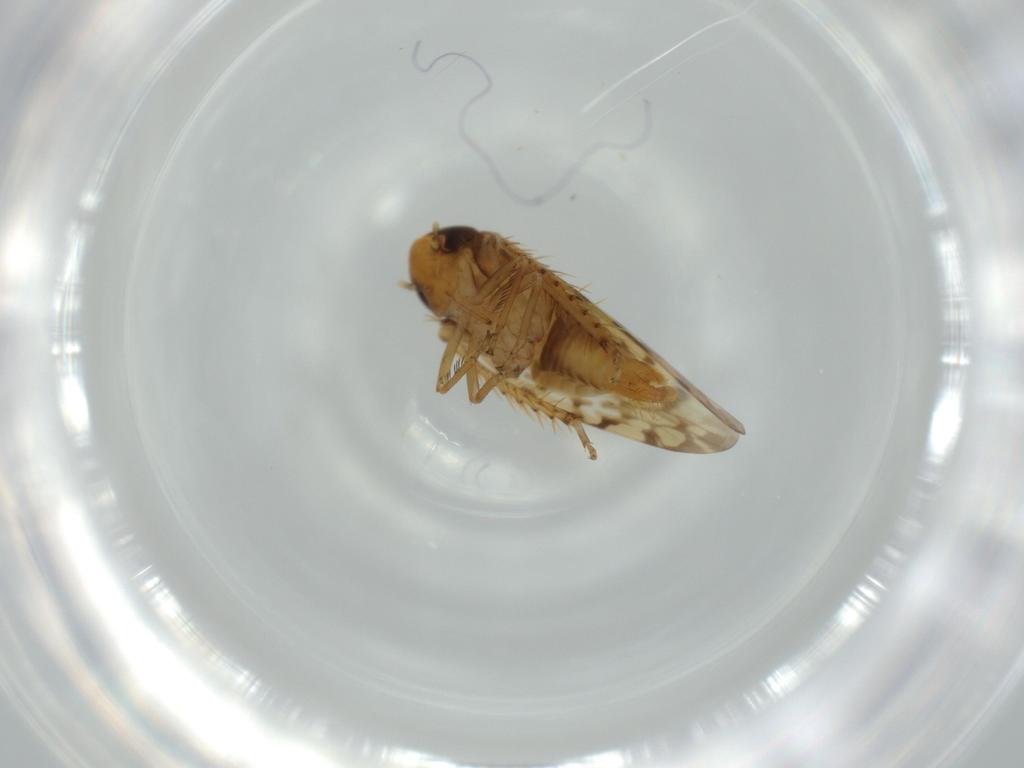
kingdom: Animalia
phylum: Arthropoda
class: Insecta
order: Hemiptera
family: Cicadellidae
